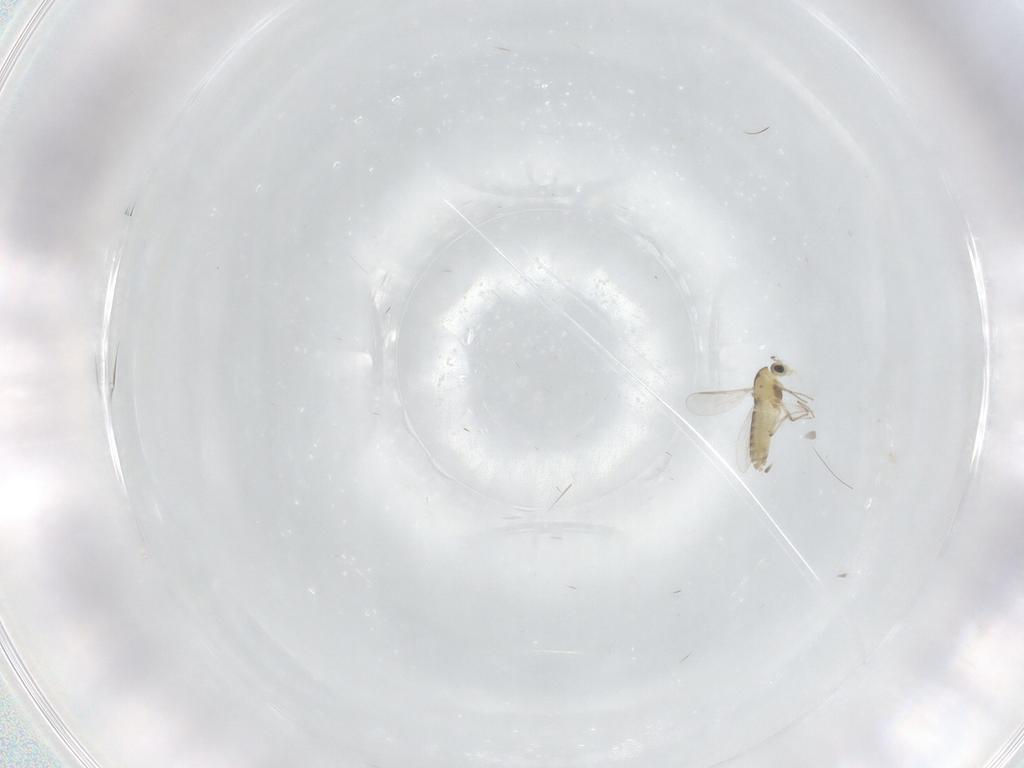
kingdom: Animalia
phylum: Arthropoda
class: Insecta
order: Diptera
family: Chironomidae
